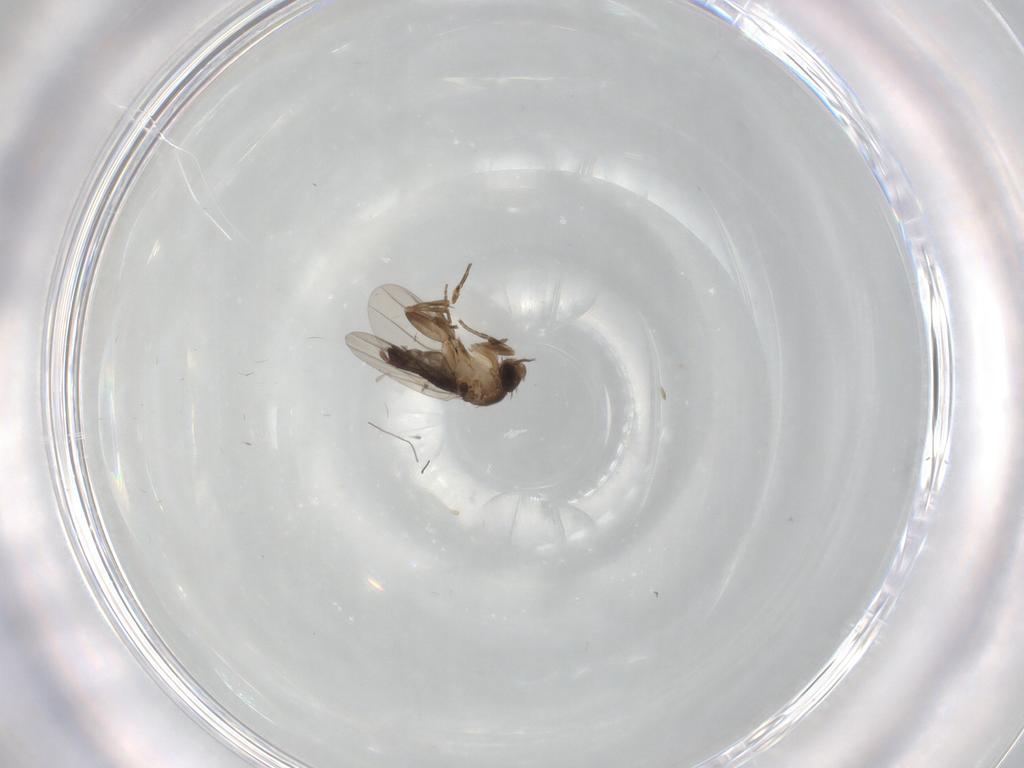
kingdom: Animalia
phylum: Arthropoda
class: Insecta
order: Diptera
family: Phoridae
